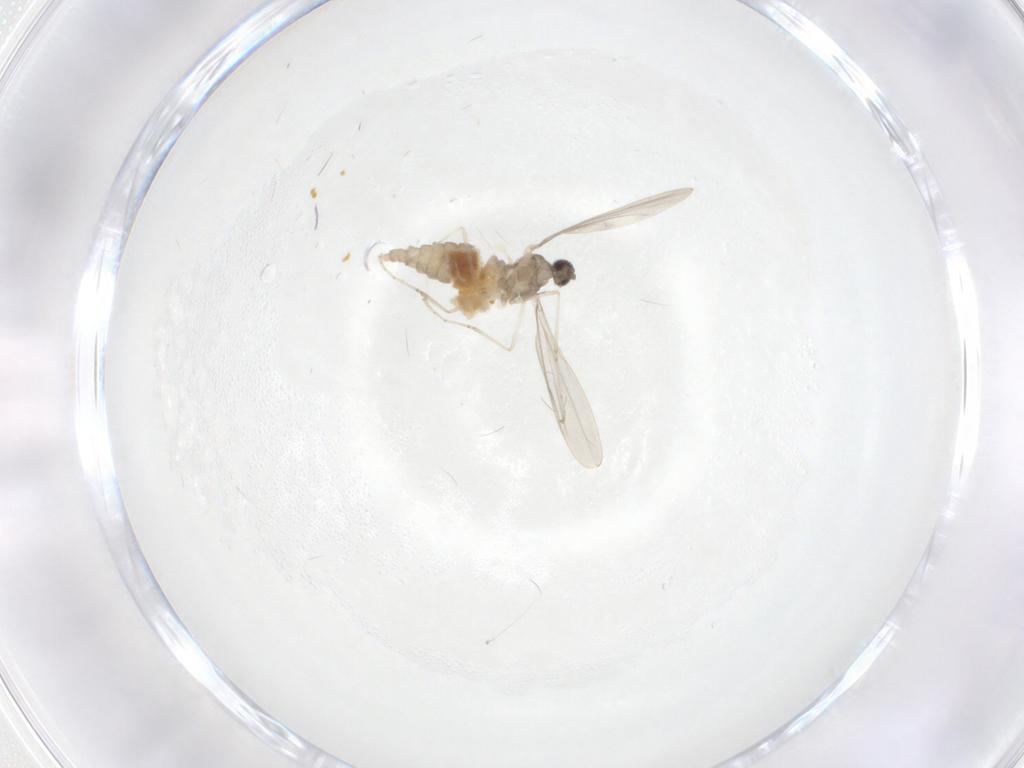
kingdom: Animalia
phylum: Arthropoda
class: Insecta
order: Diptera
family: Cecidomyiidae
